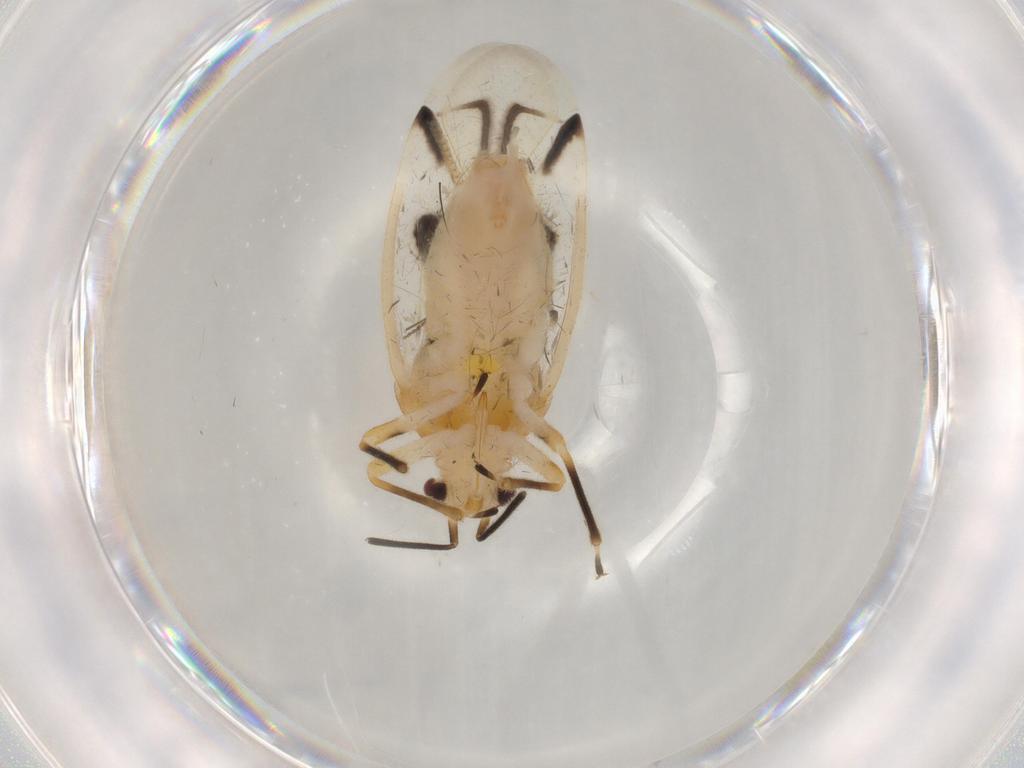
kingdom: Animalia
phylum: Arthropoda
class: Insecta
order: Hemiptera
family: Miridae
